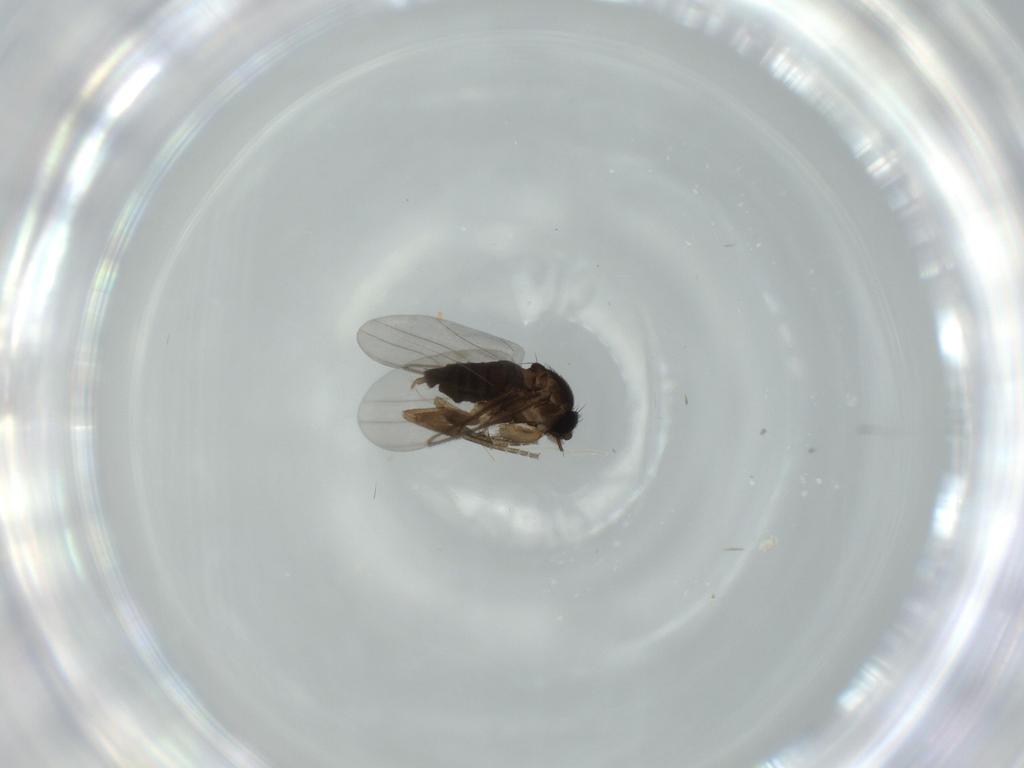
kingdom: Animalia
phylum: Arthropoda
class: Insecta
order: Diptera
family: Cecidomyiidae
